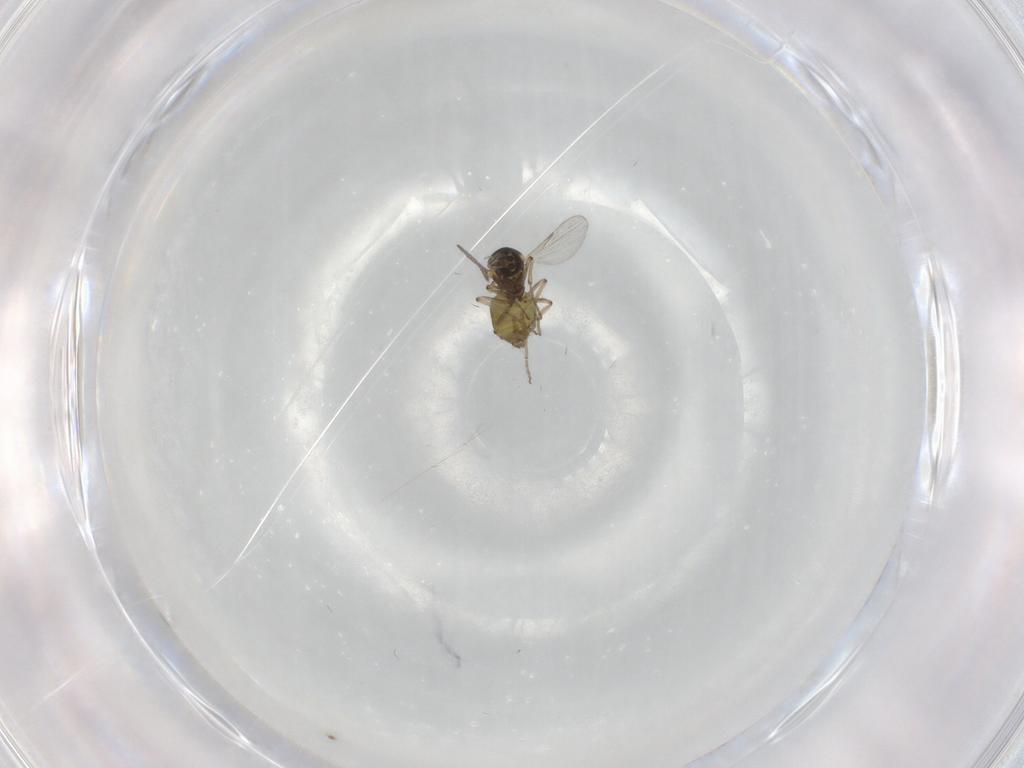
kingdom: Animalia
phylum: Arthropoda
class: Insecta
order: Diptera
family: Ceratopogonidae
